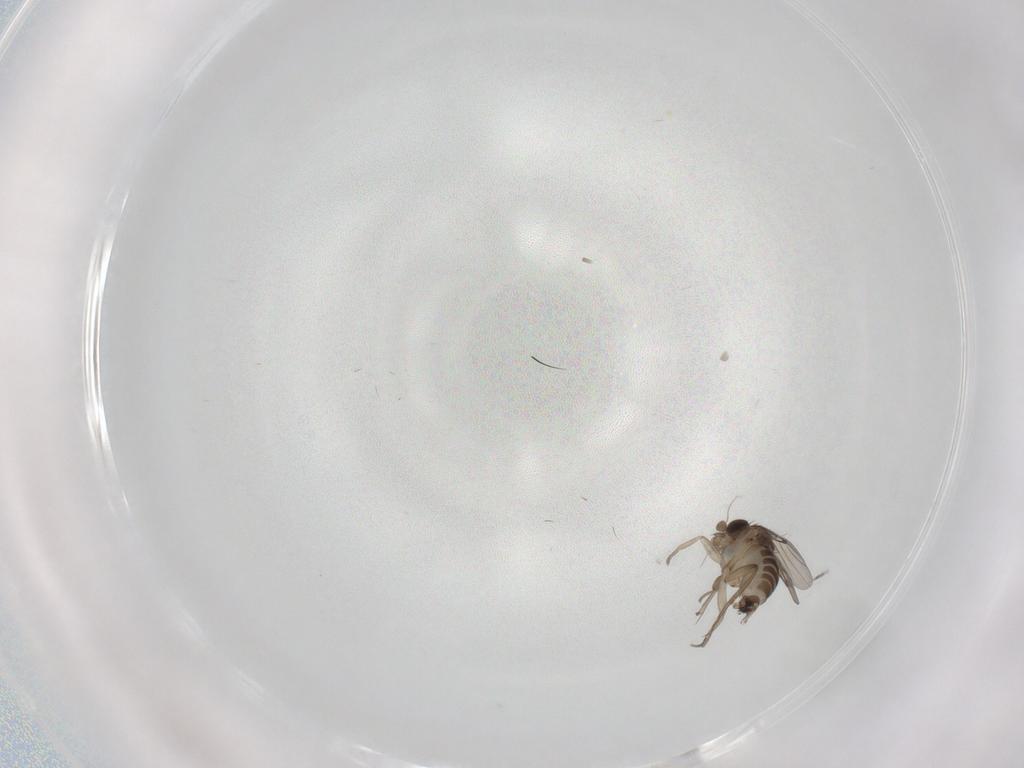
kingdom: Animalia
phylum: Arthropoda
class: Insecta
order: Diptera
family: Phoridae
